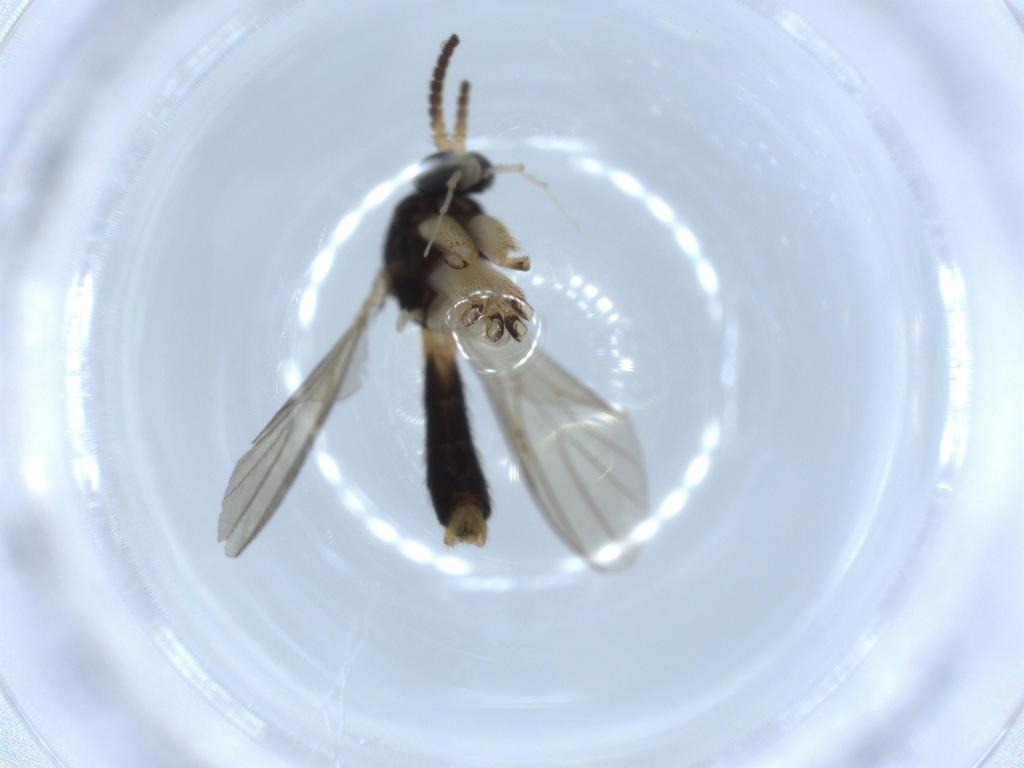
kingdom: Animalia
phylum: Arthropoda
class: Insecta
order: Diptera
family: Sciaridae
